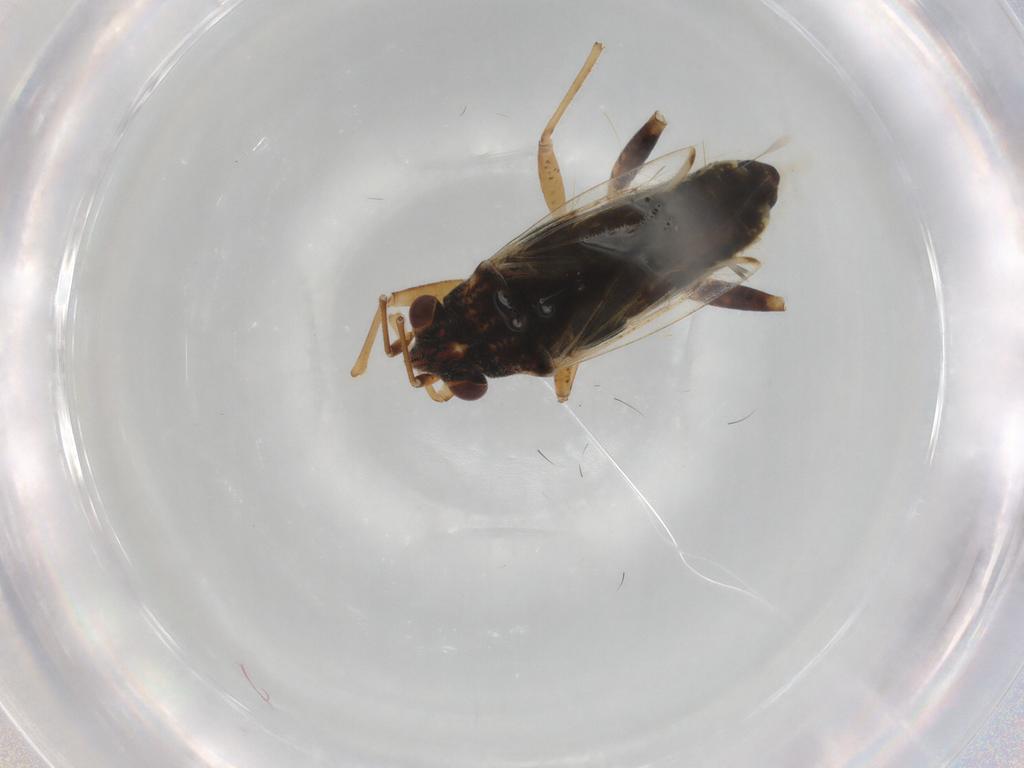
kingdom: Animalia
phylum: Arthropoda
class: Insecta
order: Hemiptera
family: Lygaeidae
